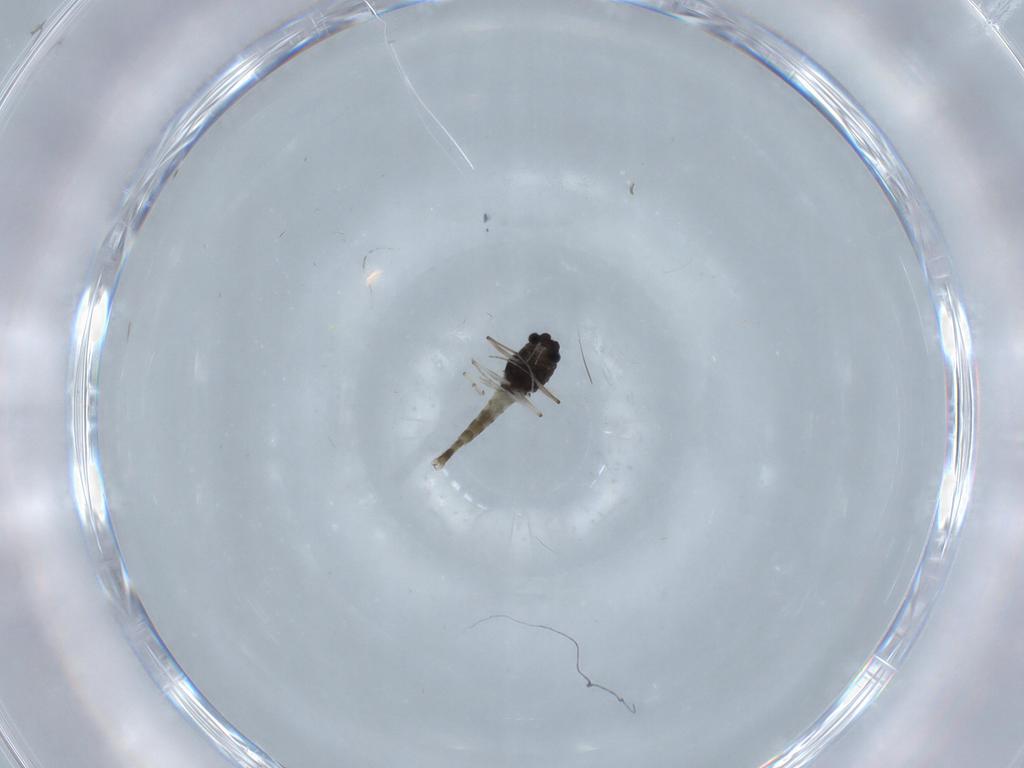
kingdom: Animalia
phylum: Arthropoda
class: Insecta
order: Diptera
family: Chironomidae
